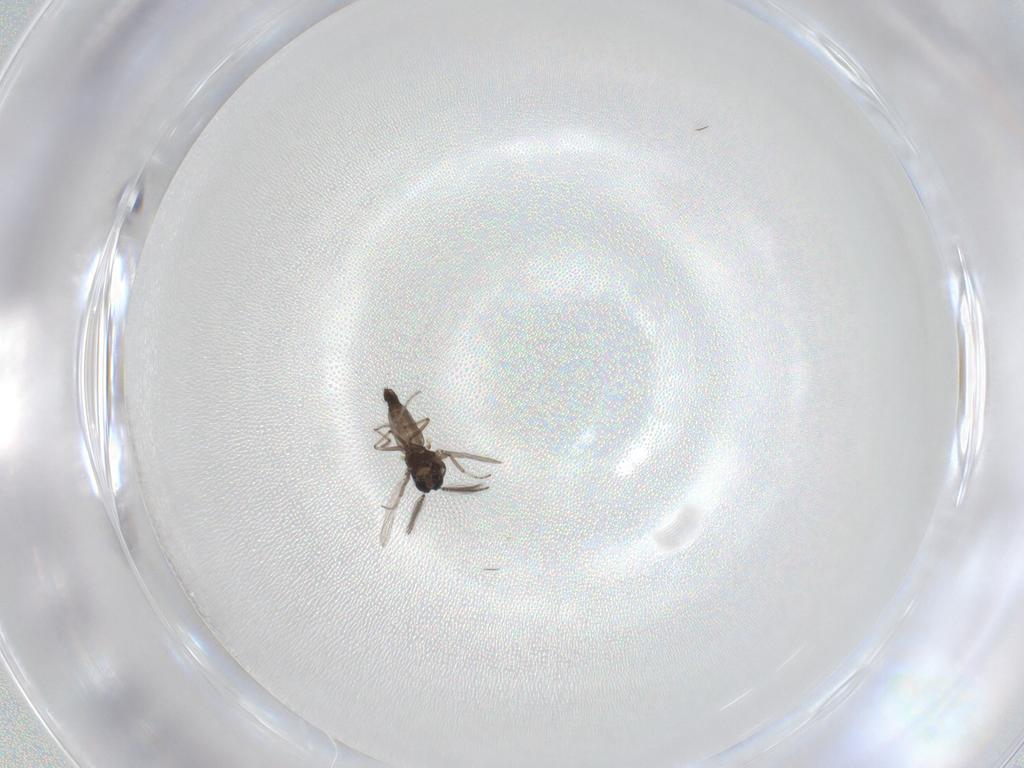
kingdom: Animalia
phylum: Arthropoda
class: Insecta
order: Diptera
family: Ceratopogonidae
